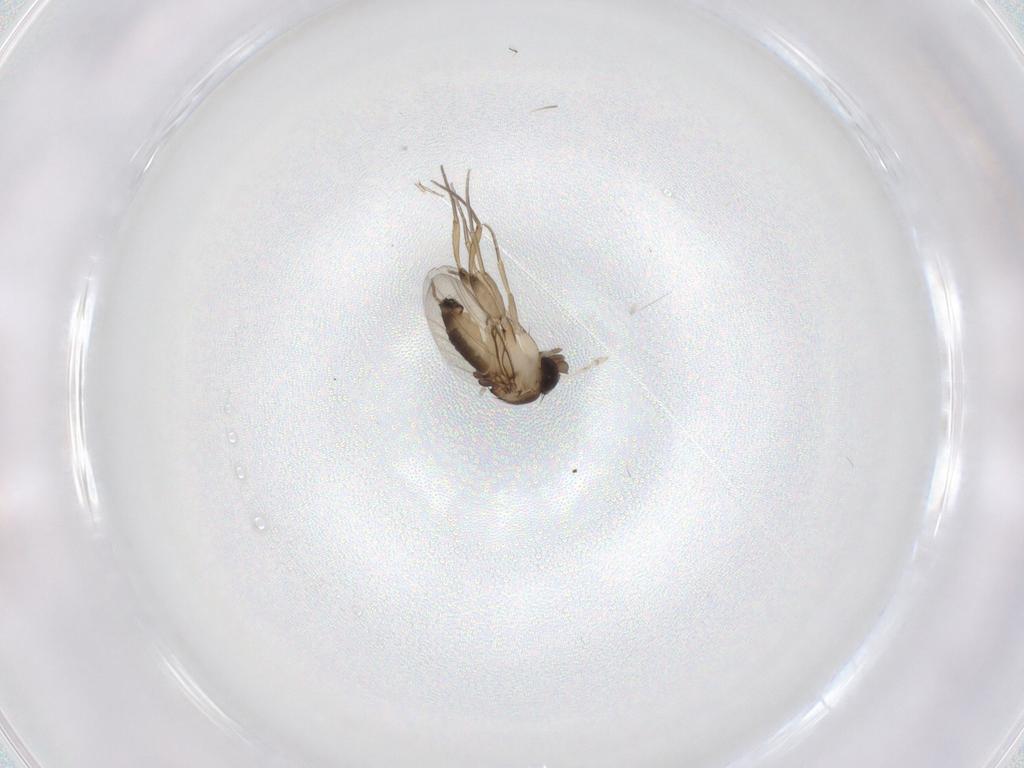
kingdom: Animalia
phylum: Arthropoda
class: Insecta
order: Diptera
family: Phoridae
